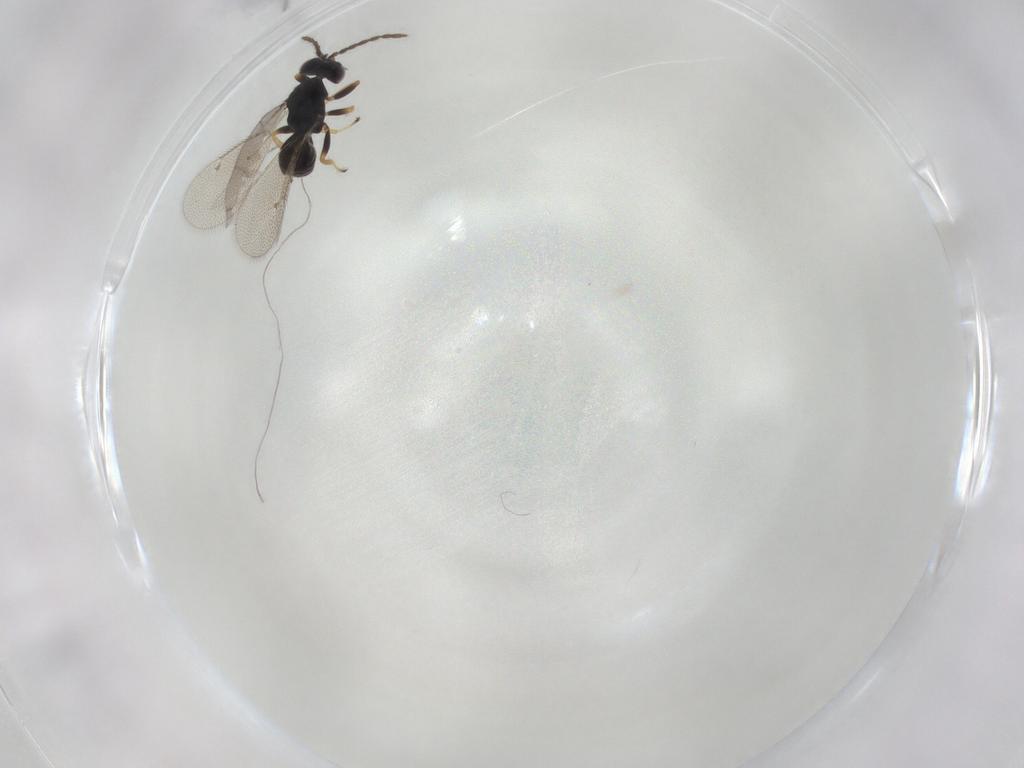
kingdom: Animalia
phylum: Arthropoda
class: Insecta
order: Hymenoptera
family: Eulophidae
